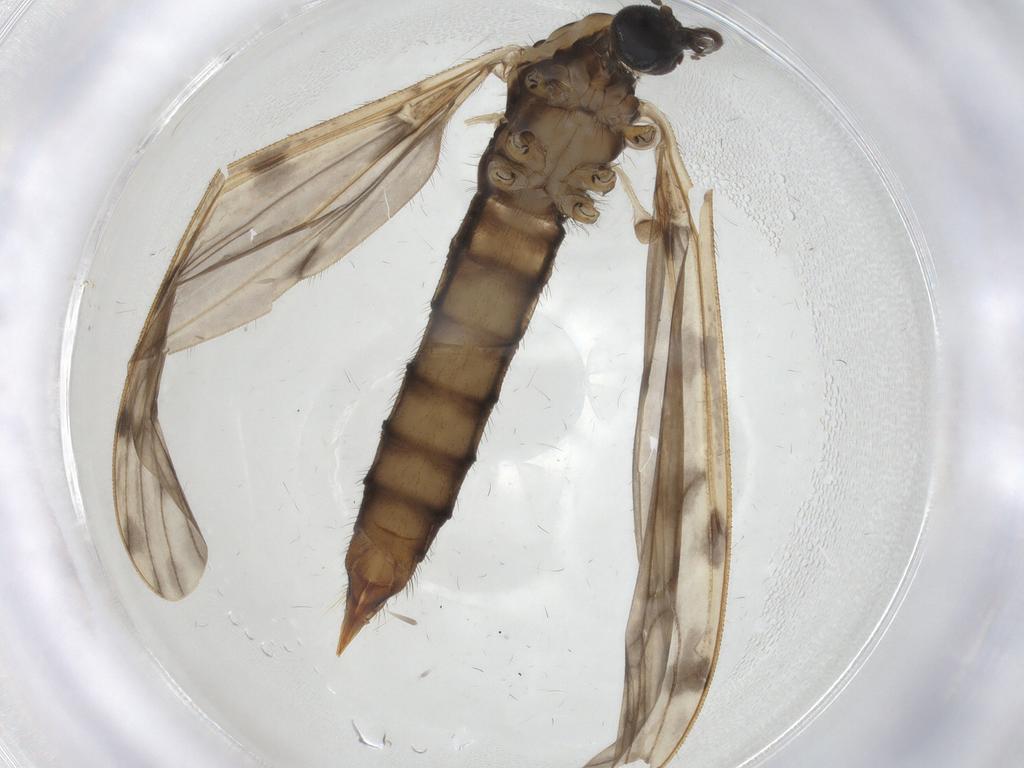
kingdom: Animalia
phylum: Arthropoda
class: Insecta
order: Diptera
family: Ceratopogonidae
